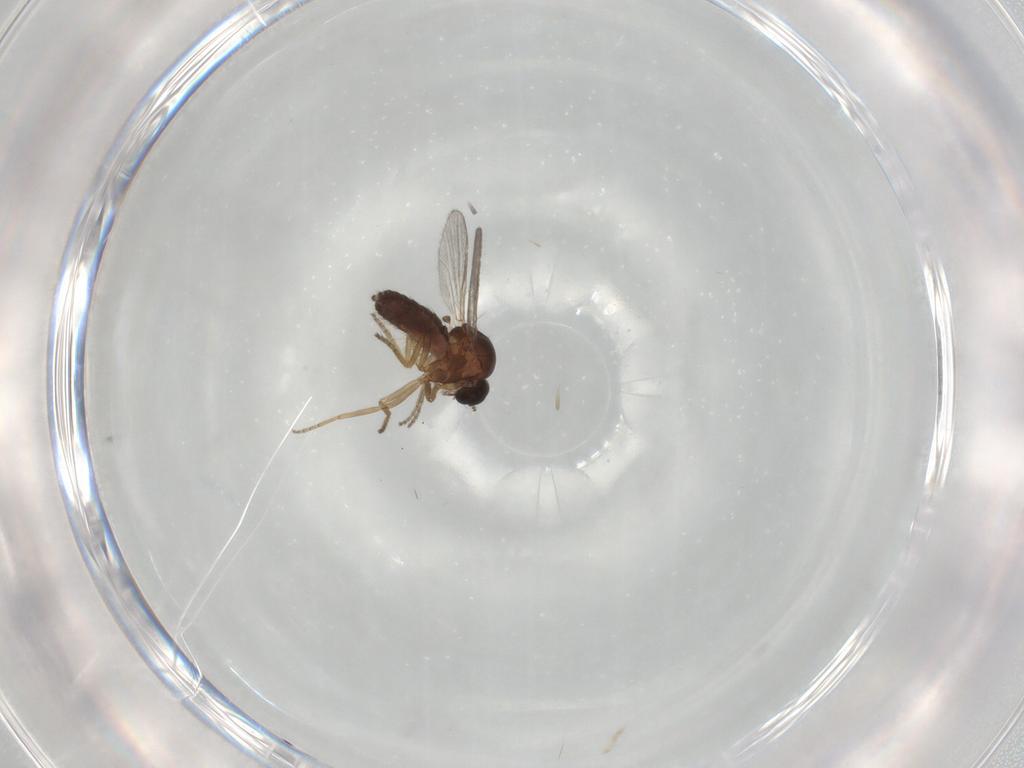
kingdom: Animalia
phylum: Arthropoda
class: Insecta
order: Diptera
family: Ceratopogonidae
